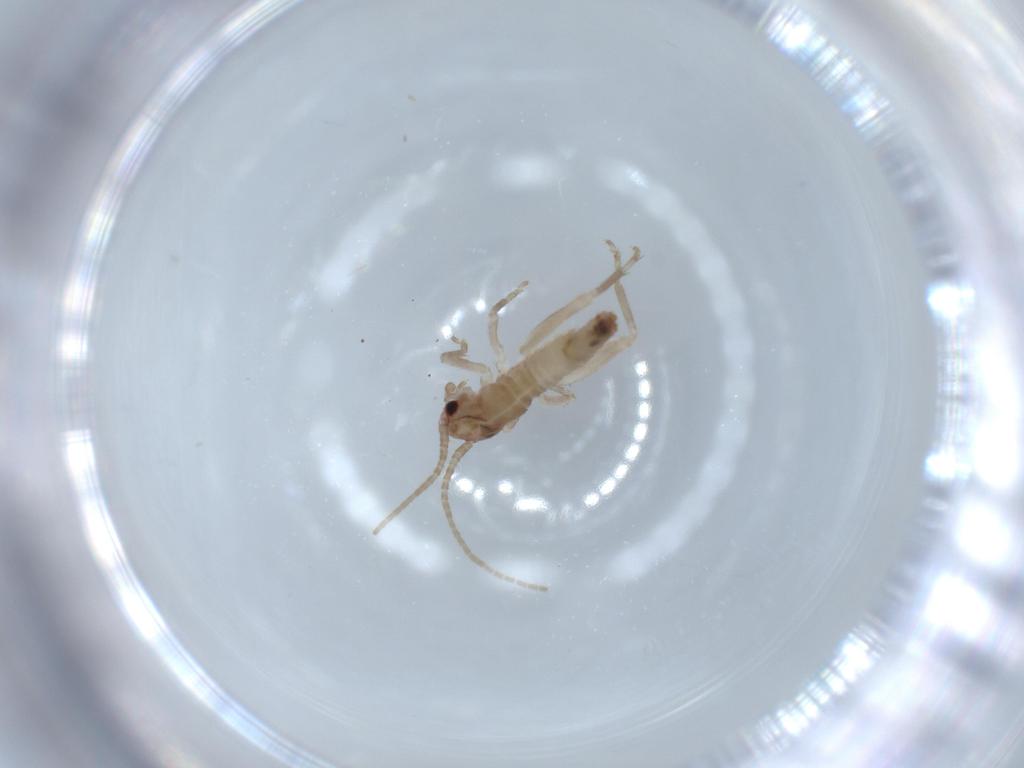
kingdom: Animalia
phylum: Arthropoda
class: Insecta
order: Orthoptera
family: Mogoplistidae
